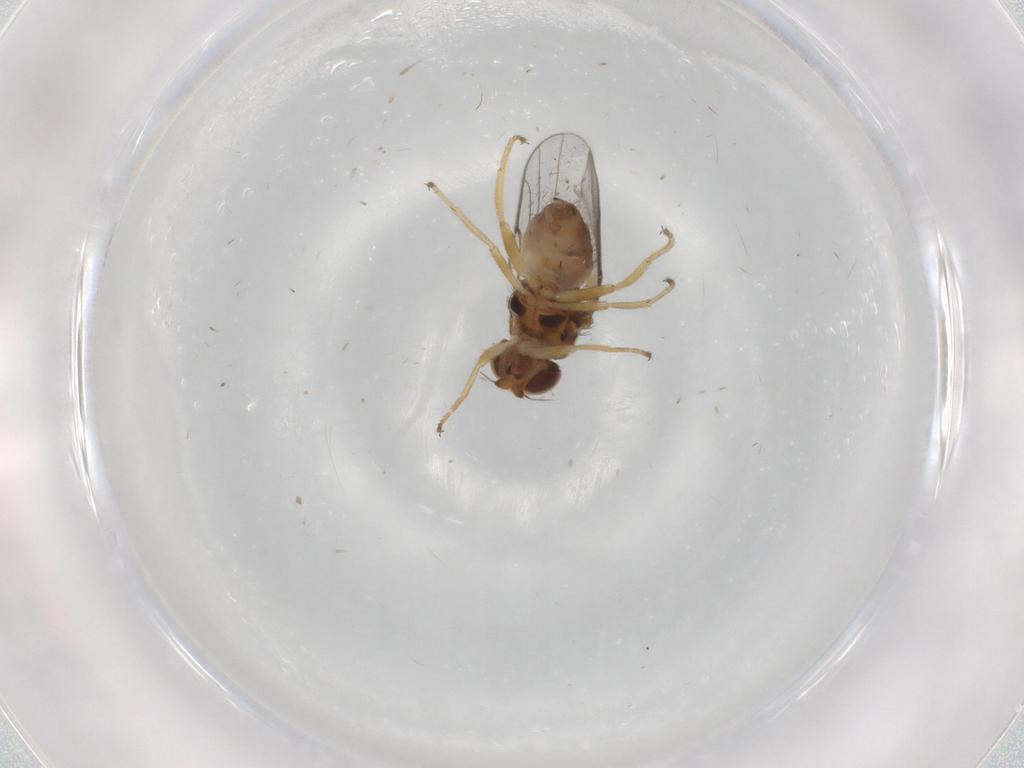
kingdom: Animalia
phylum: Arthropoda
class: Insecta
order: Diptera
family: Chloropidae
